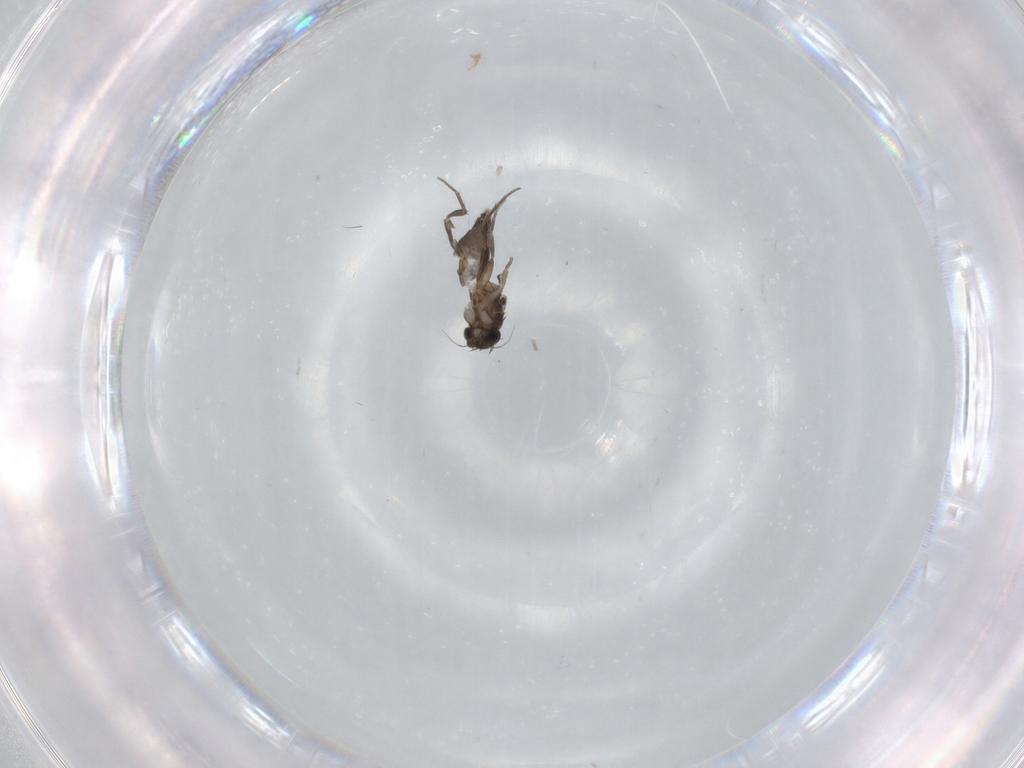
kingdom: Animalia
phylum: Arthropoda
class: Insecta
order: Diptera
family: Phoridae
